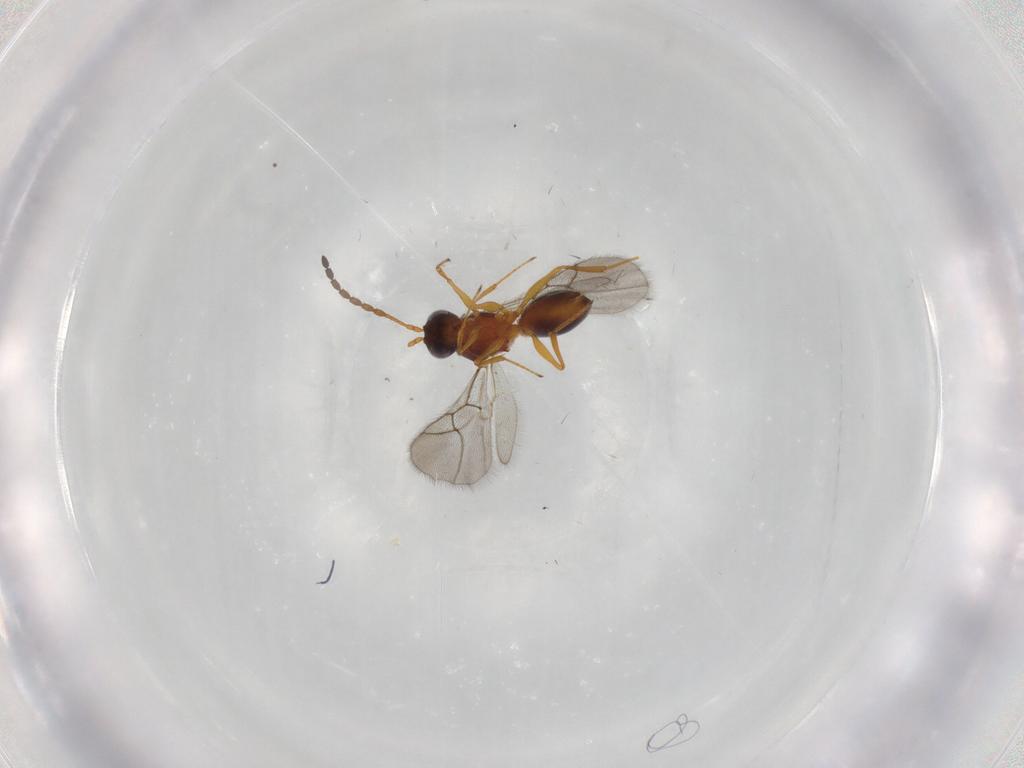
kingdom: Animalia
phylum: Arthropoda
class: Insecta
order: Hymenoptera
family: Figitidae
